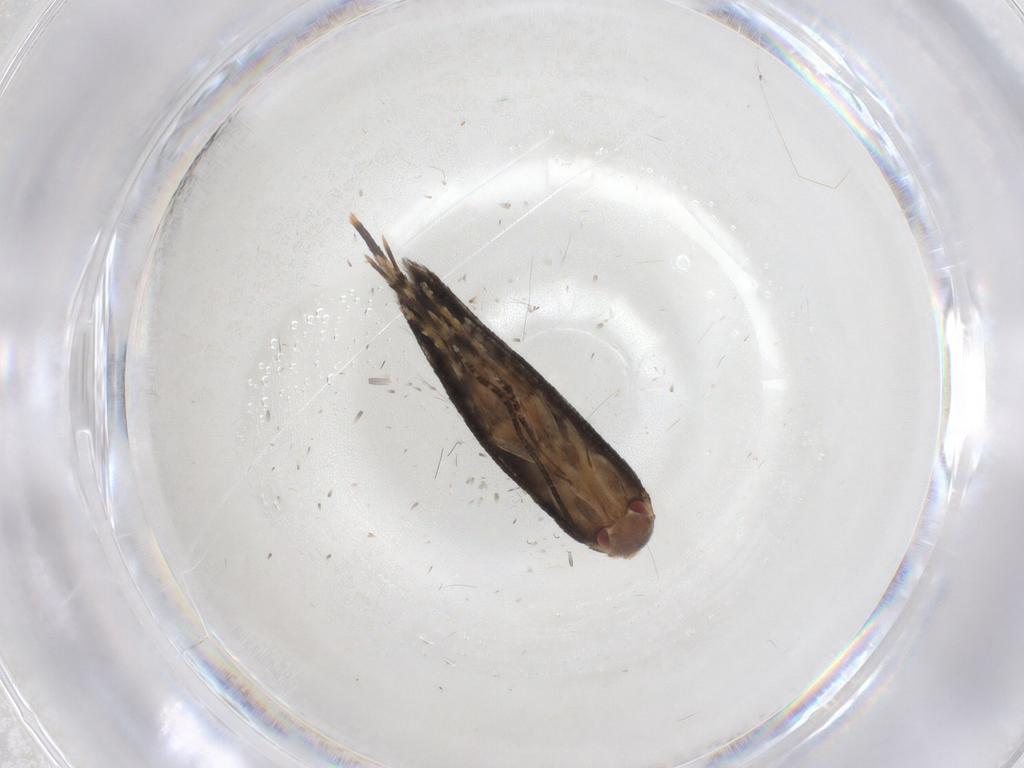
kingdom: Animalia
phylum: Arthropoda
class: Insecta
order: Lepidoptera
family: Momphidae
